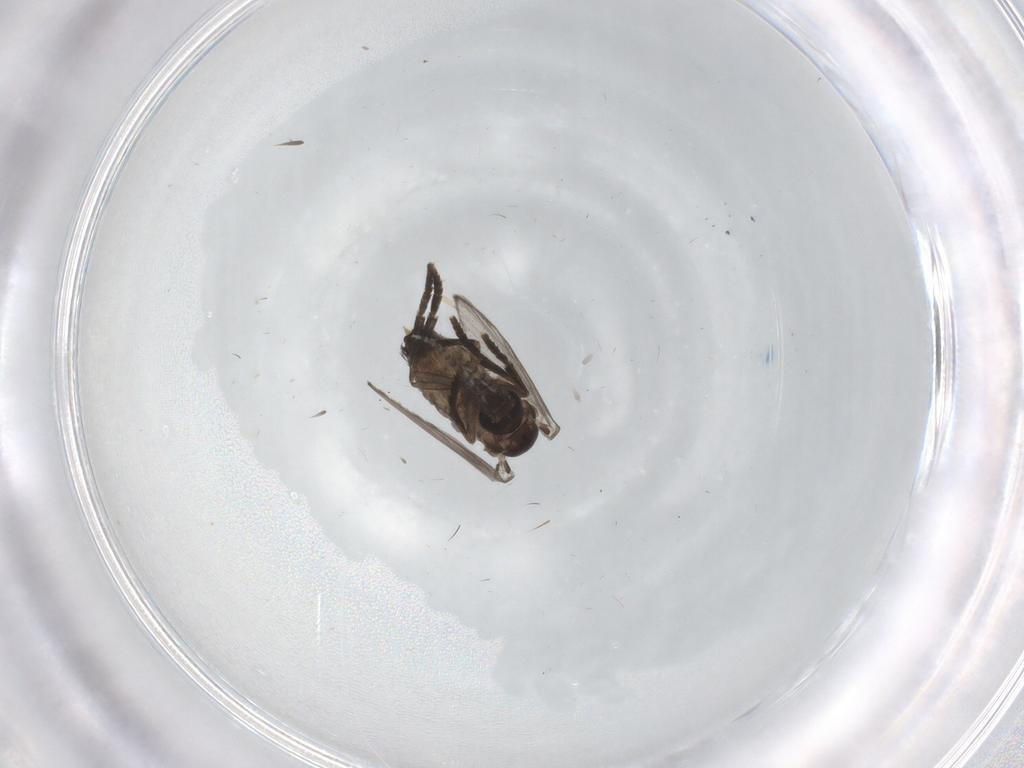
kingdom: Animalia
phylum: Arthropoda
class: Insecta
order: Diptera
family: Psychodidae
